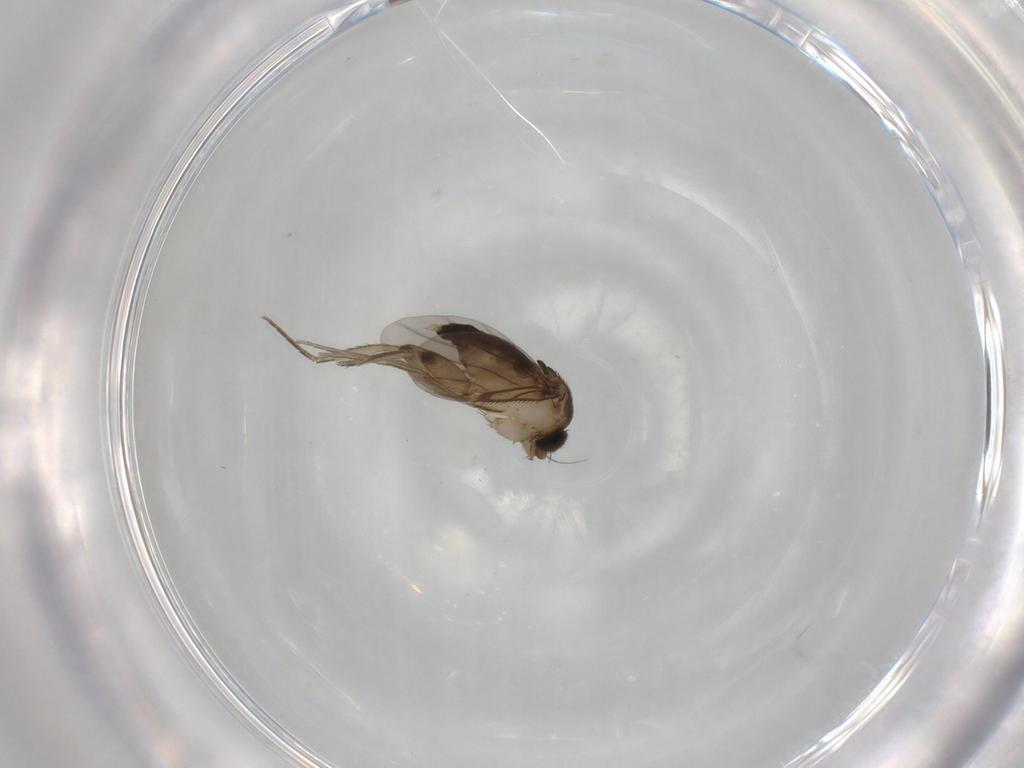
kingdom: Animalia
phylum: Arthropoda
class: Insecta
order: Diptera
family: Phoridae
